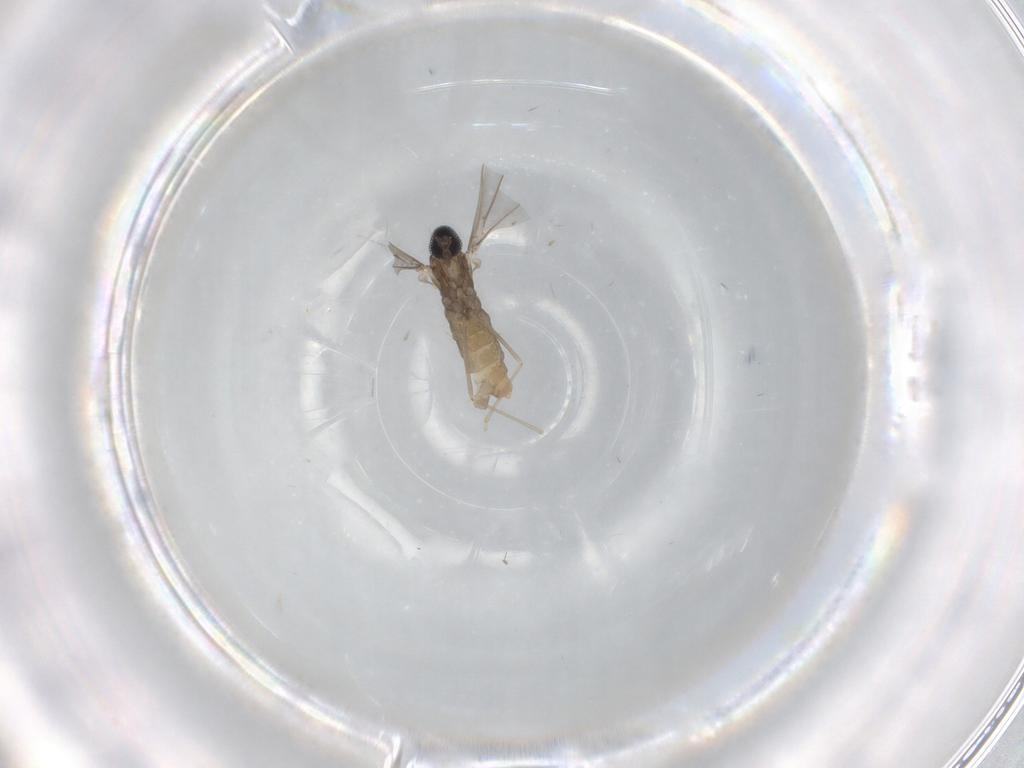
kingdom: Animalia
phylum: Arthropoda
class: Insecta
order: Diptera
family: Cecidomyiidae
